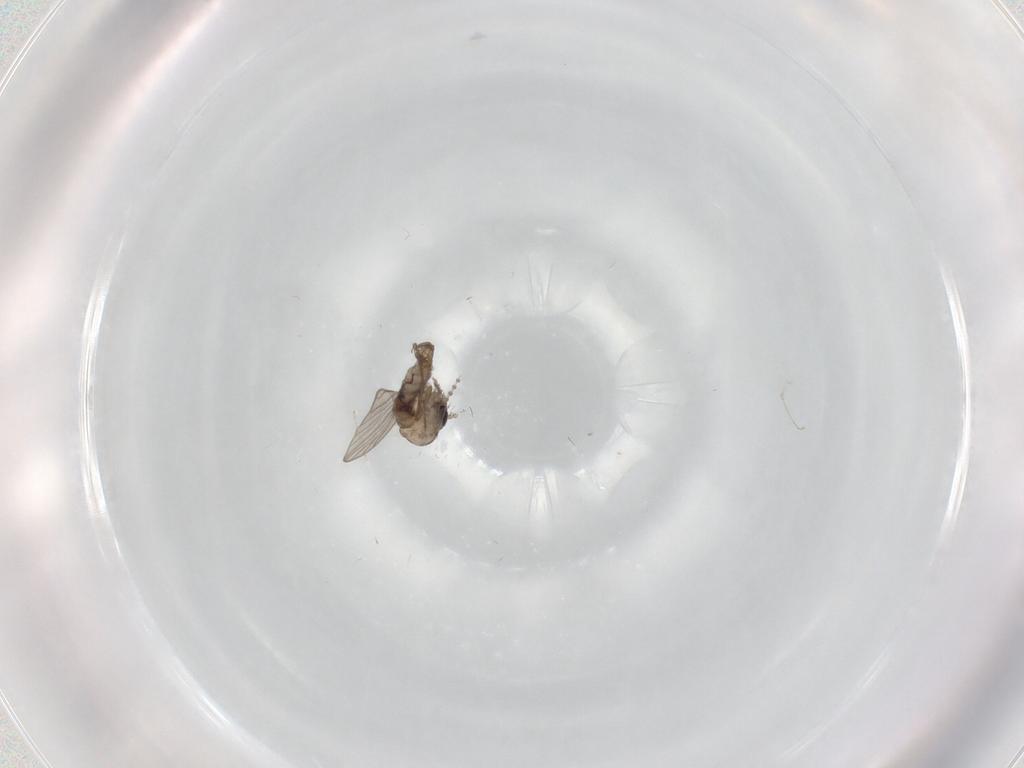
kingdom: Animalia
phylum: Arthropoda
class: Insecta
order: Diptera
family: Psychodidae
